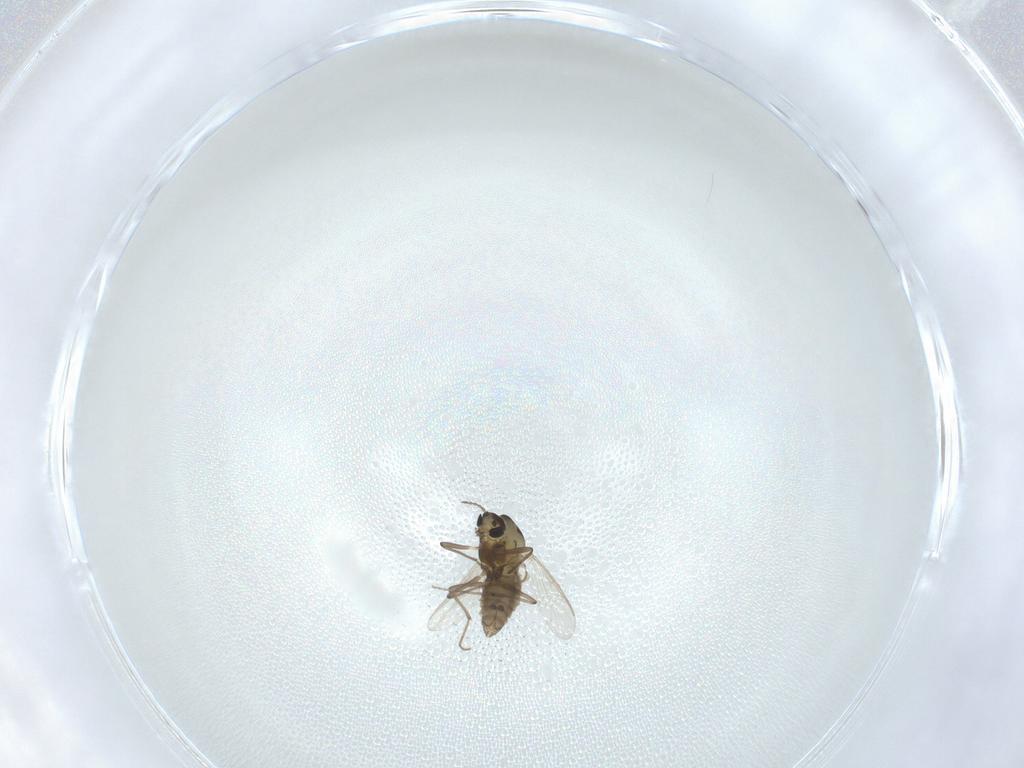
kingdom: Animalia
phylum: Arthropoda
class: Insecta
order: Diptera
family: Chironomidae
